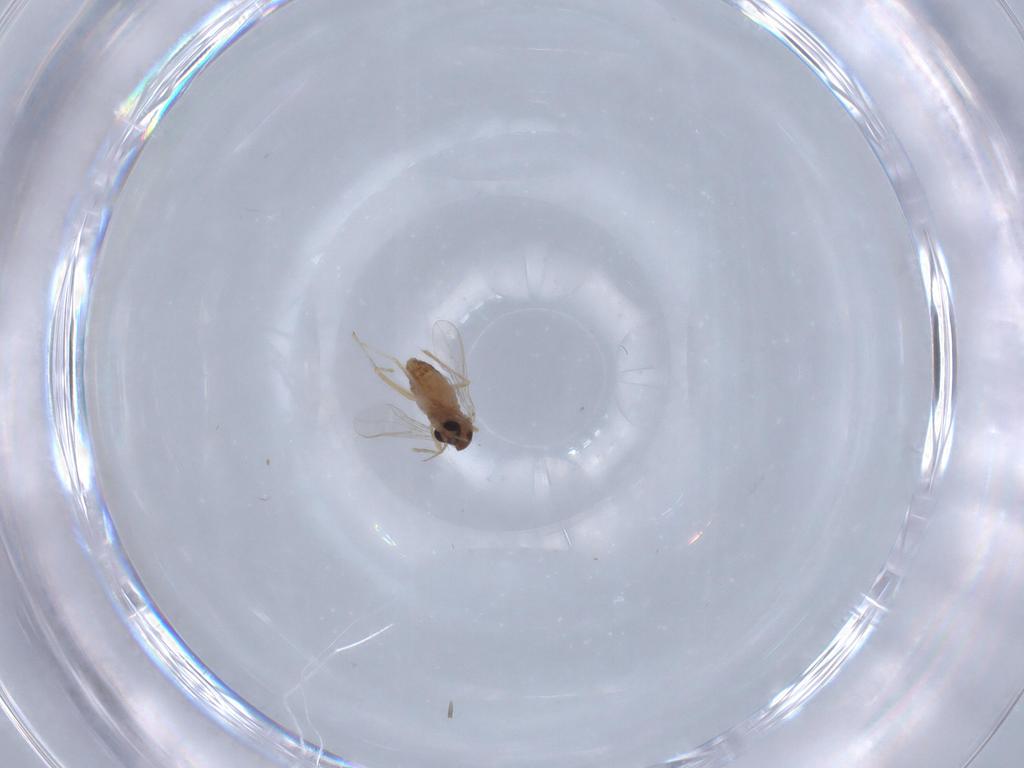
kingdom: Animalia
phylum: Arthropoda
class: Insecta
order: Diptera
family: Chironomidae
